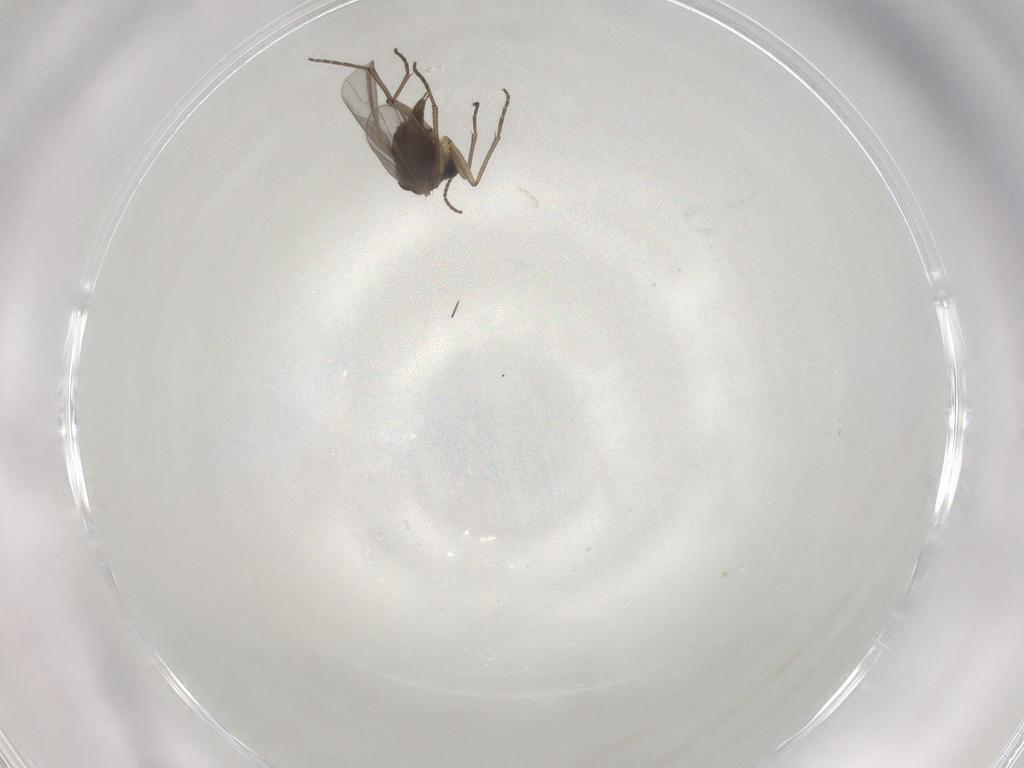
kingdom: Animalia
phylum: Arthropoda
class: Insecta
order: Diptera
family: Sciaridae
